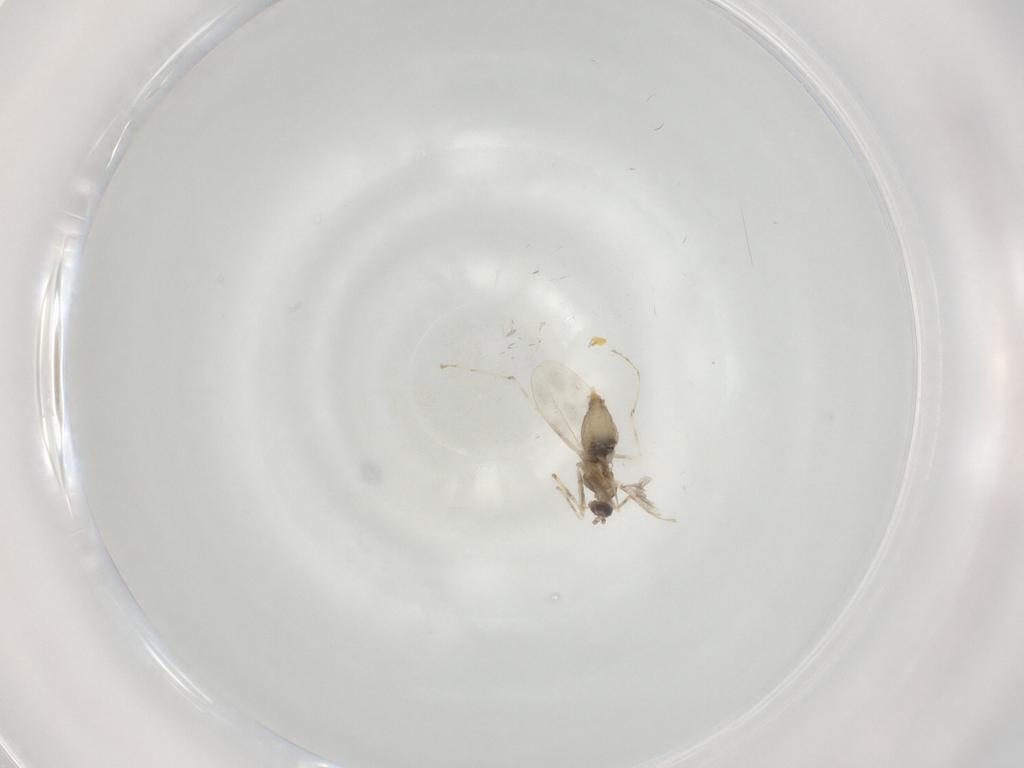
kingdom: Animalia
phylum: Arthropoda
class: Insecta
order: Diptera
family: Cecidomyiidae
